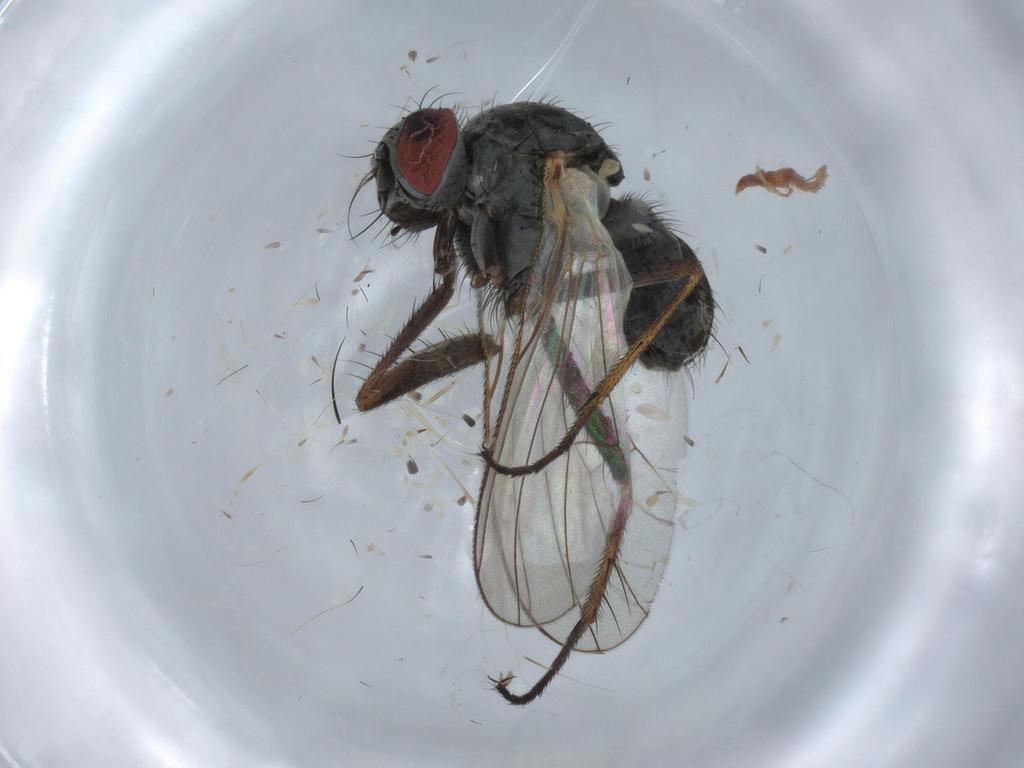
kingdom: Animalia
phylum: Arthropoda
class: Insecta
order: Diptera
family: Anthomyiidae
